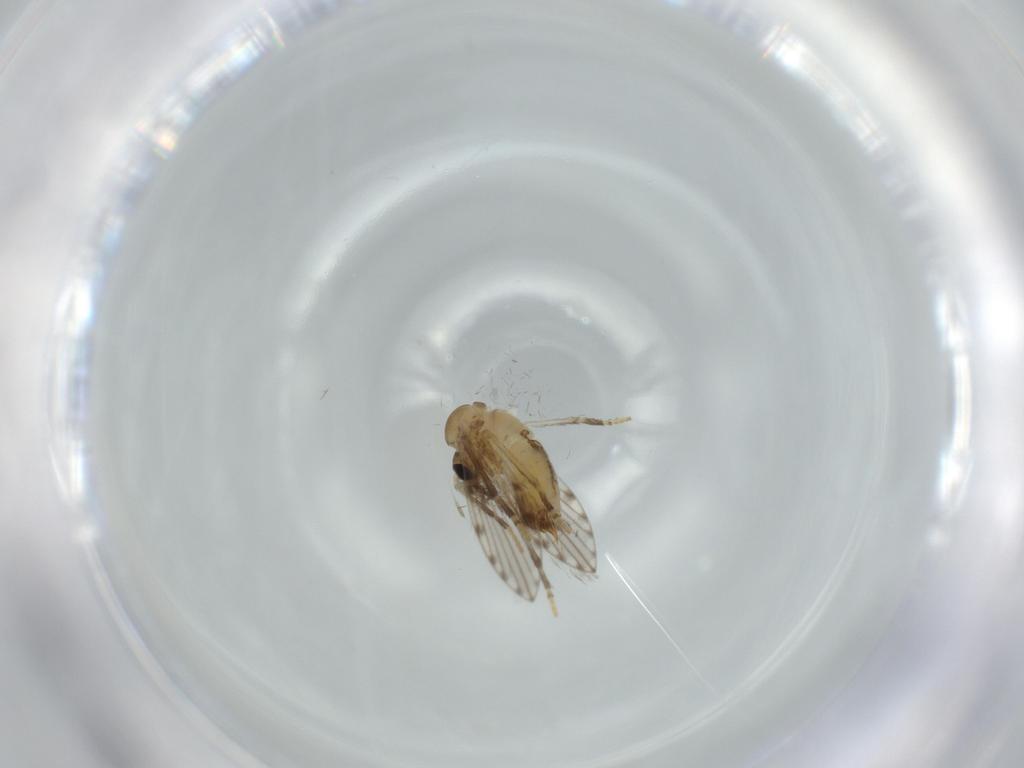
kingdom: Animalia
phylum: Arthropoda
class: Insecta
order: Diptera
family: Psychodidae
